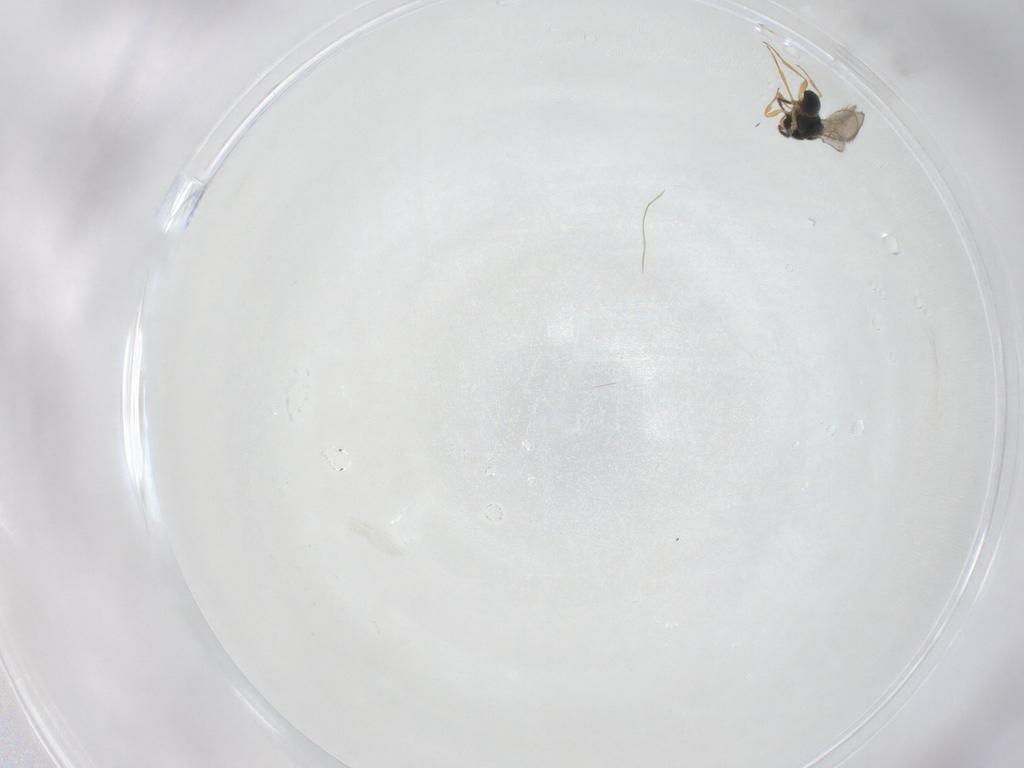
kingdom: Animalia
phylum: Arthropoda
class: Insecta
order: Hymenoptera
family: Scelionidae
